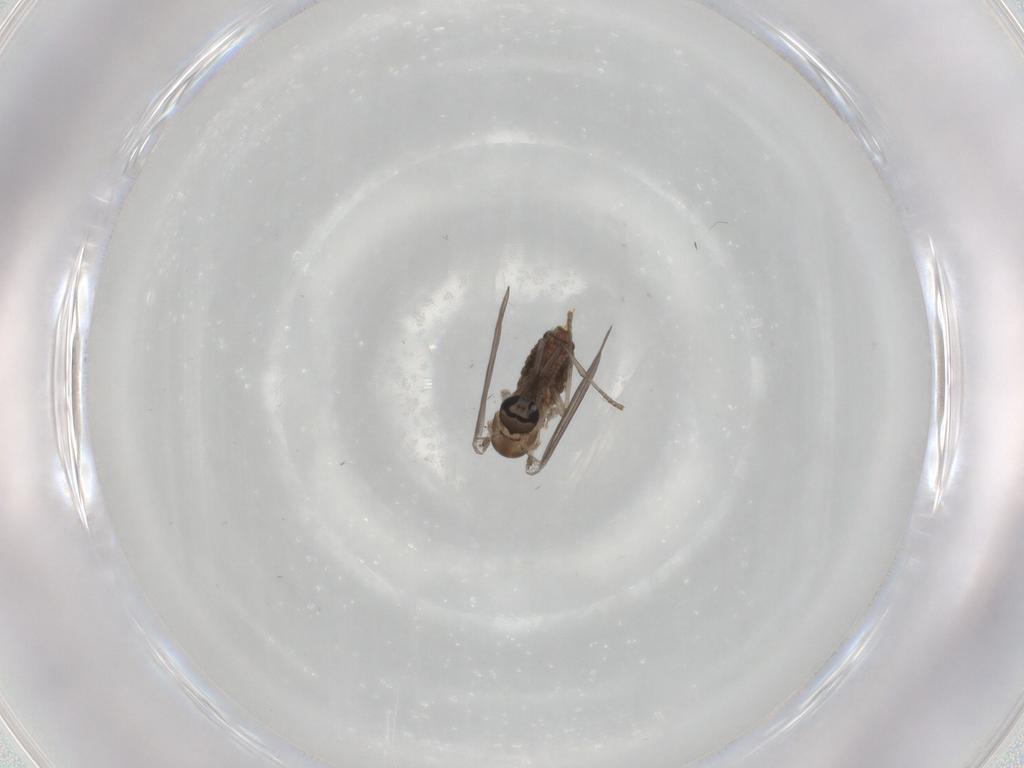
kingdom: Animalia
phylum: Arthropoda
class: Insecta
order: Diptera
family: Psychodidae
